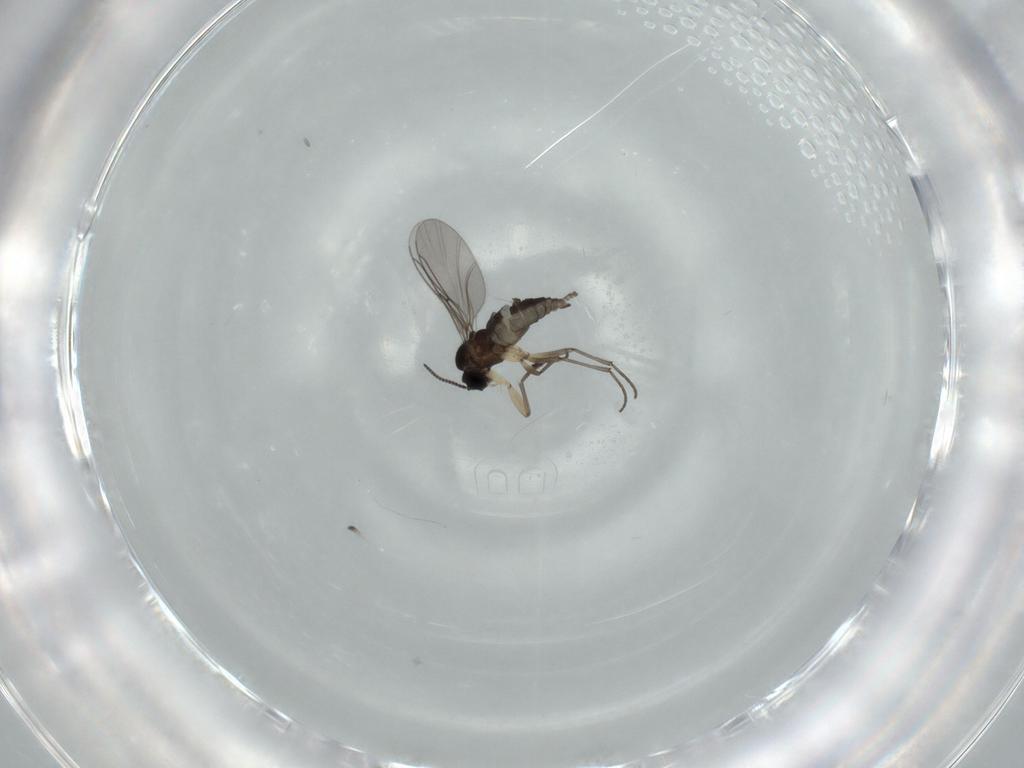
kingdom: Animalia
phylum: Arthropoda
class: Insecta
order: Diptera
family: Sciaridae
